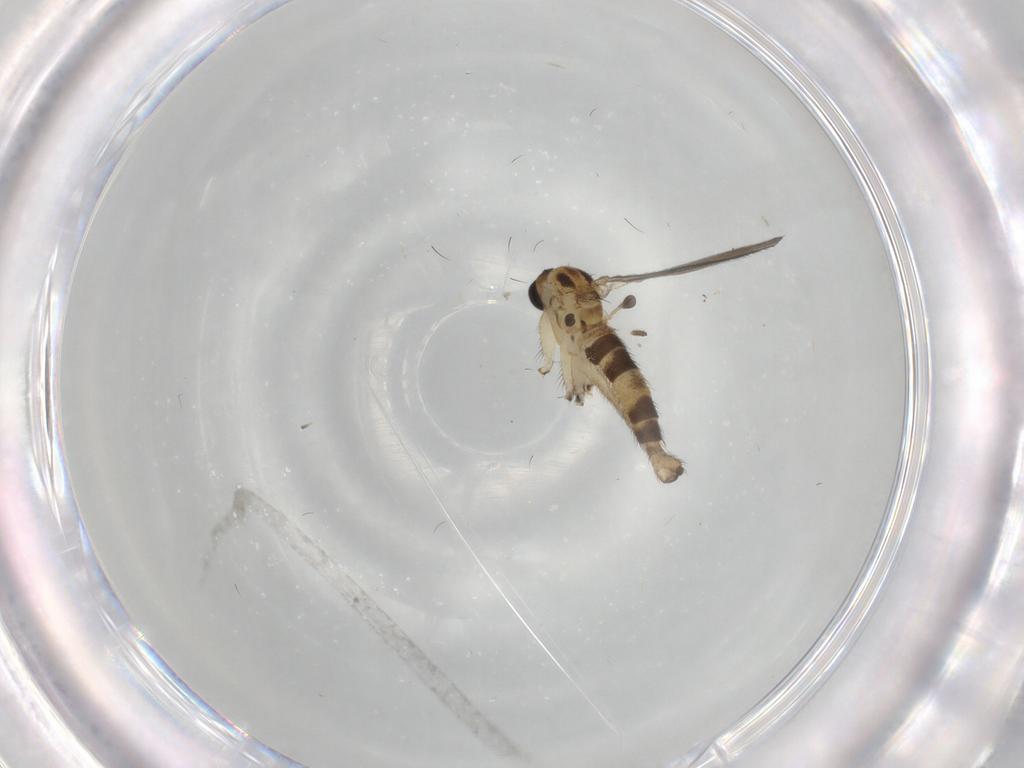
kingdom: Animalia
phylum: Arthropoda
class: Insecta
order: Diptera
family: Sciaridae
